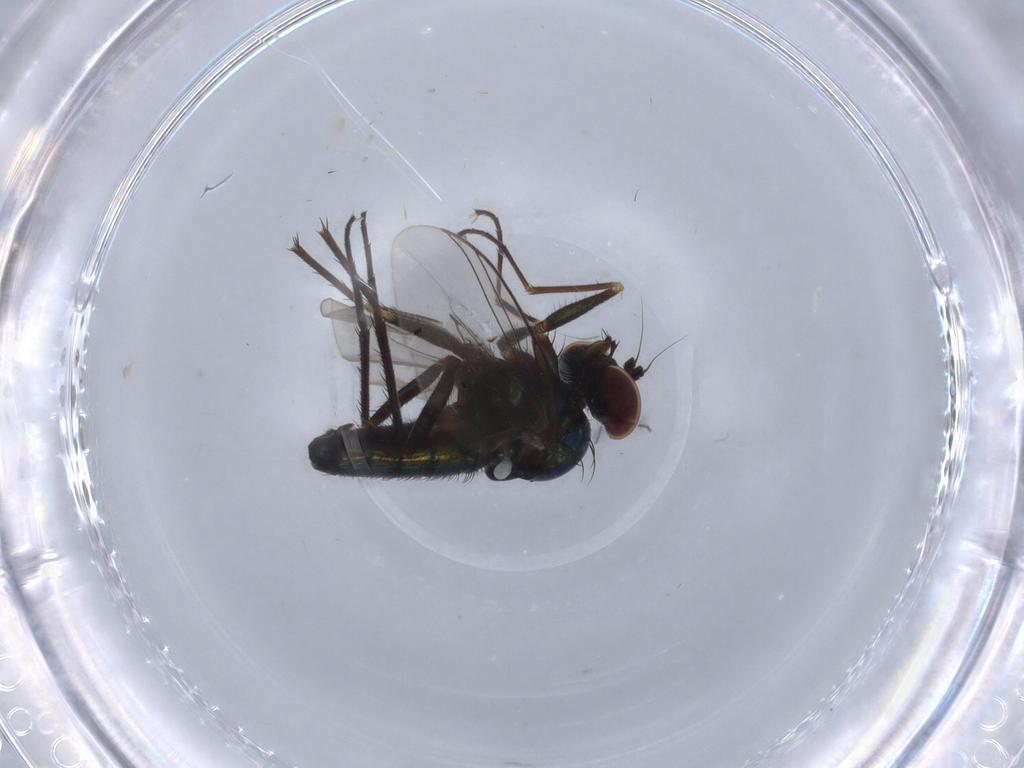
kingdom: Animalia
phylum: Arthropoda
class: Insecta
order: Diptera
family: Dolichopodidae
